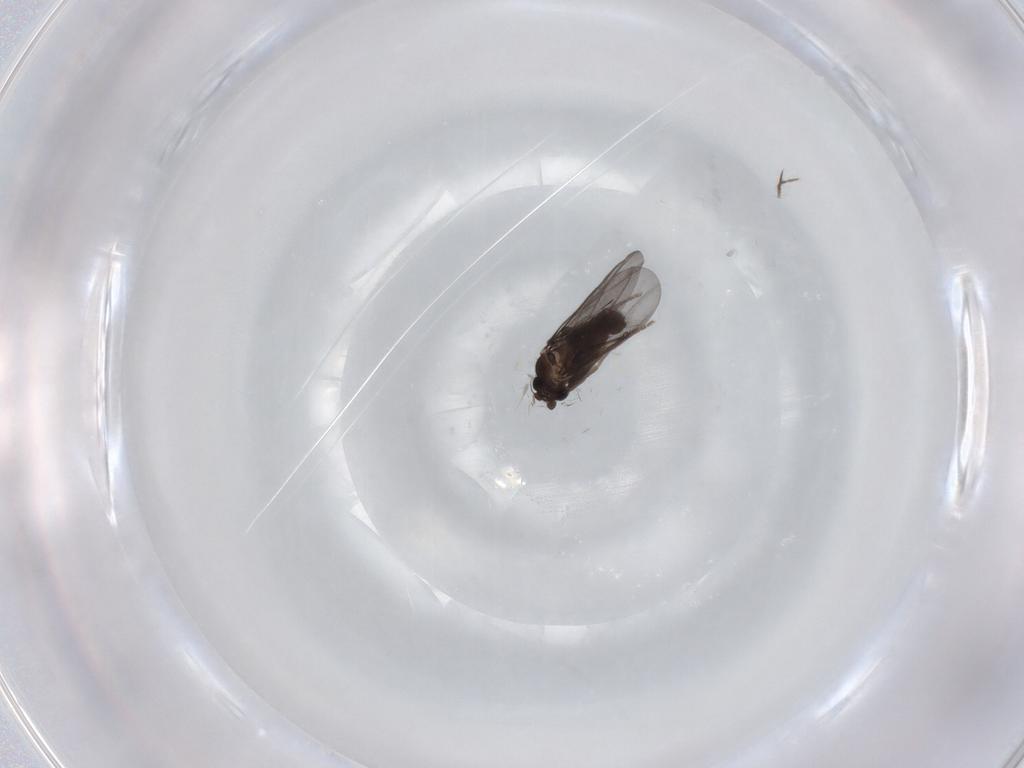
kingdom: Animalia
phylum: Arthropoda
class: Insecta
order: Diptera
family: Phoridae
